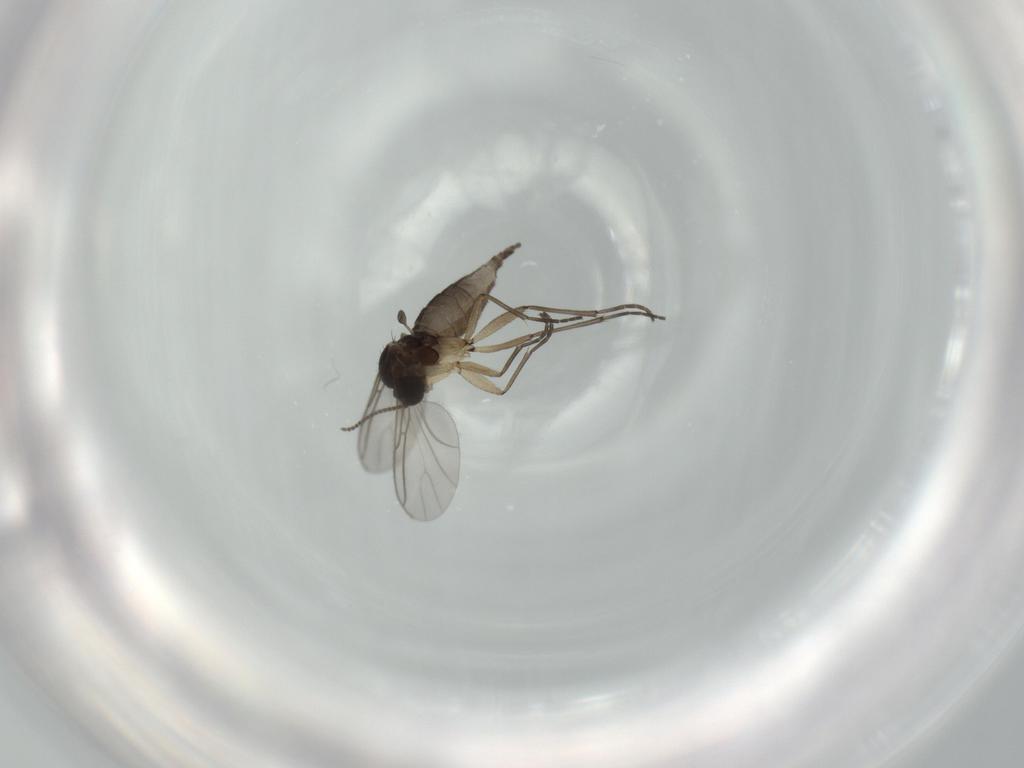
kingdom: Animalia
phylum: Arthropoda
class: Insecta
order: Diptera
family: Sciaridae
